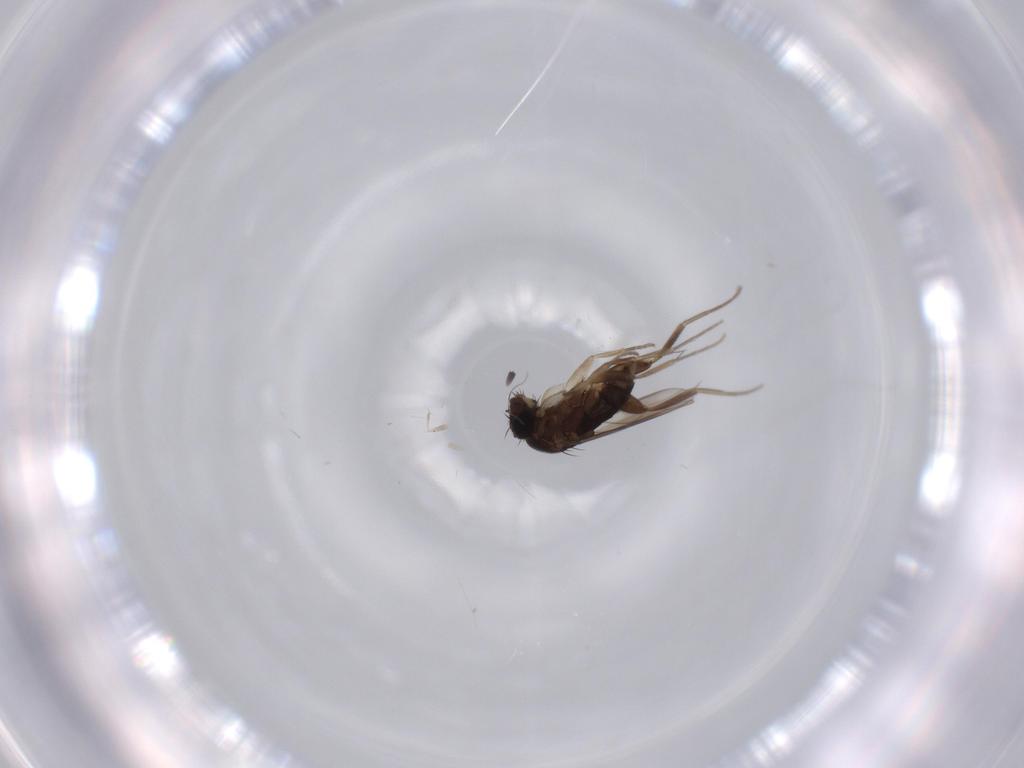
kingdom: Animalia
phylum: Arthropoda
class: Insecta
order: Diptera
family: Phoridae
